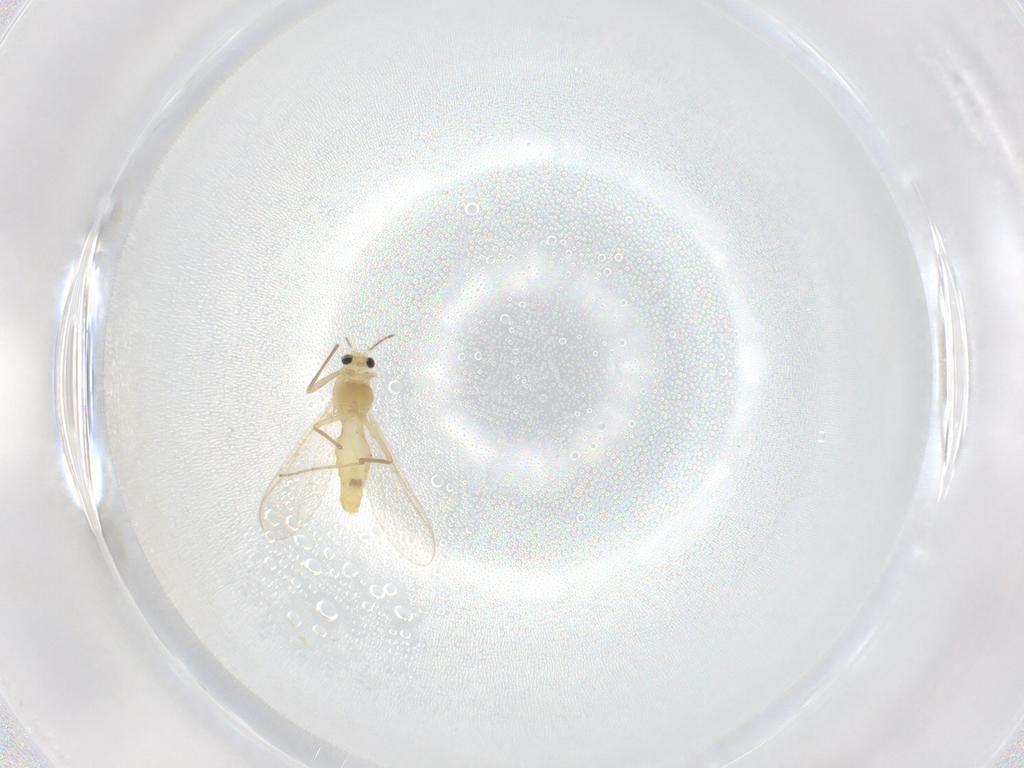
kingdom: Animalia
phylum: Arthropoda
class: Insecta
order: Diptera
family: Chironomidae
